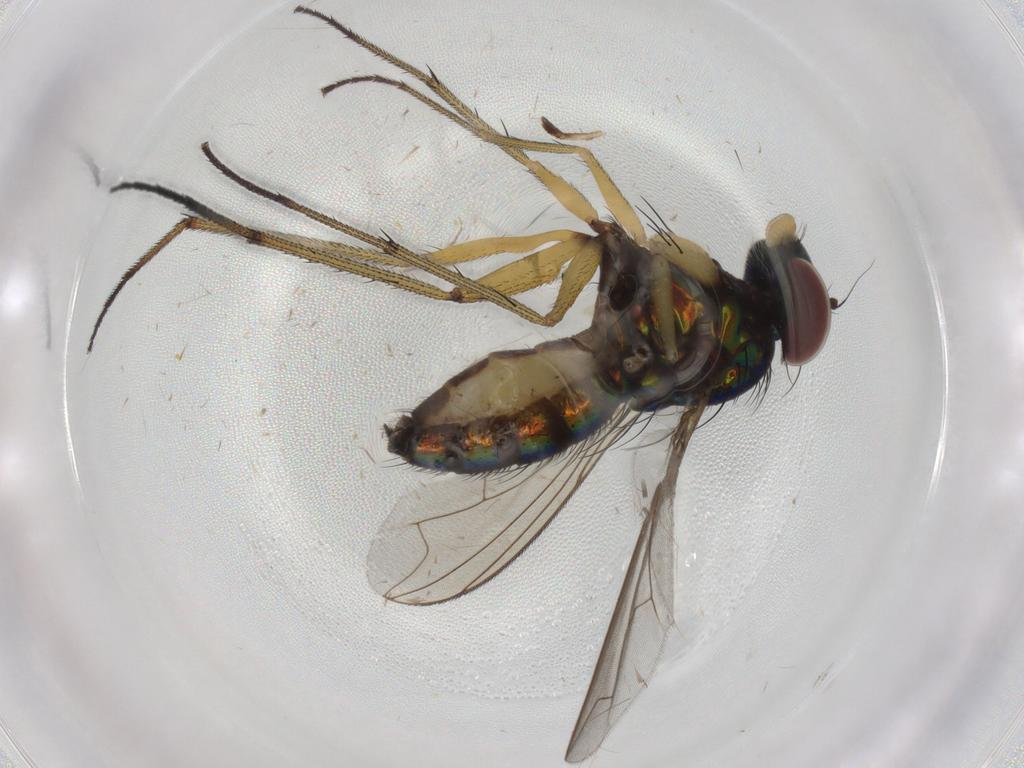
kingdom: Animalia
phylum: Arthropoda
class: Insecta
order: Diptera
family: Dolichopodidae
